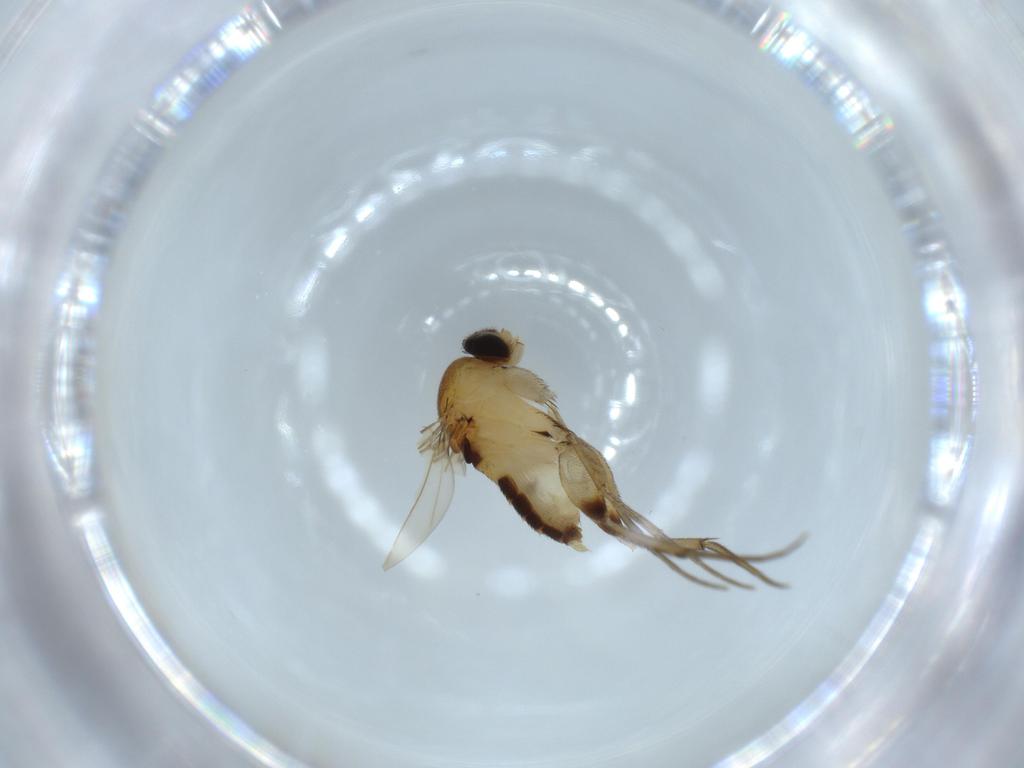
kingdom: Animalia
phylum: Arthropoda
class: Insecta
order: Diptera
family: Phoridae
